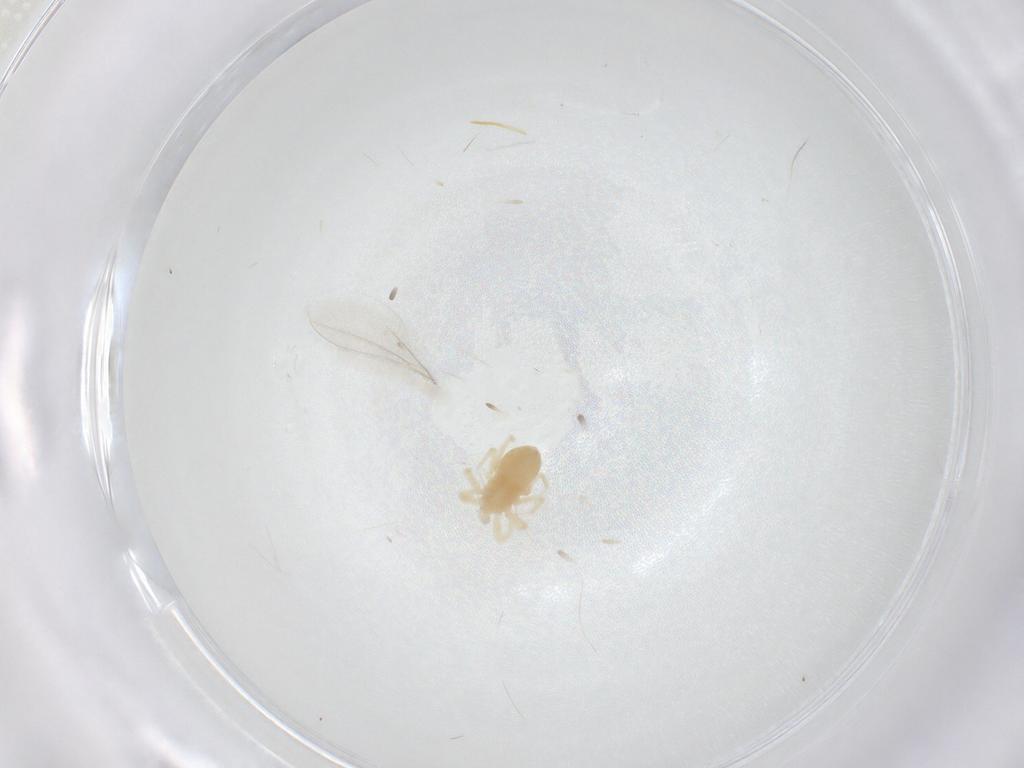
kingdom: Animalia
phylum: Arthropoda
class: Arachnida
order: Trombidiformes
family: Anystidae
